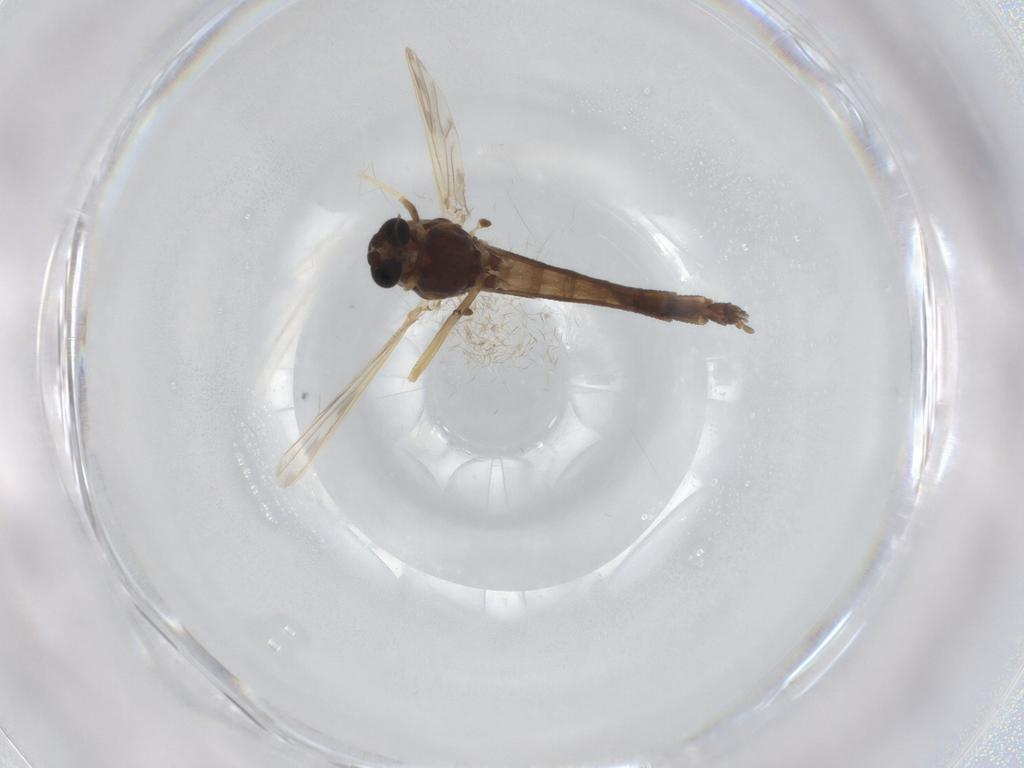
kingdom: Animalia
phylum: Arthropoda
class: Insecta
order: Diptera
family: Chironomidae
